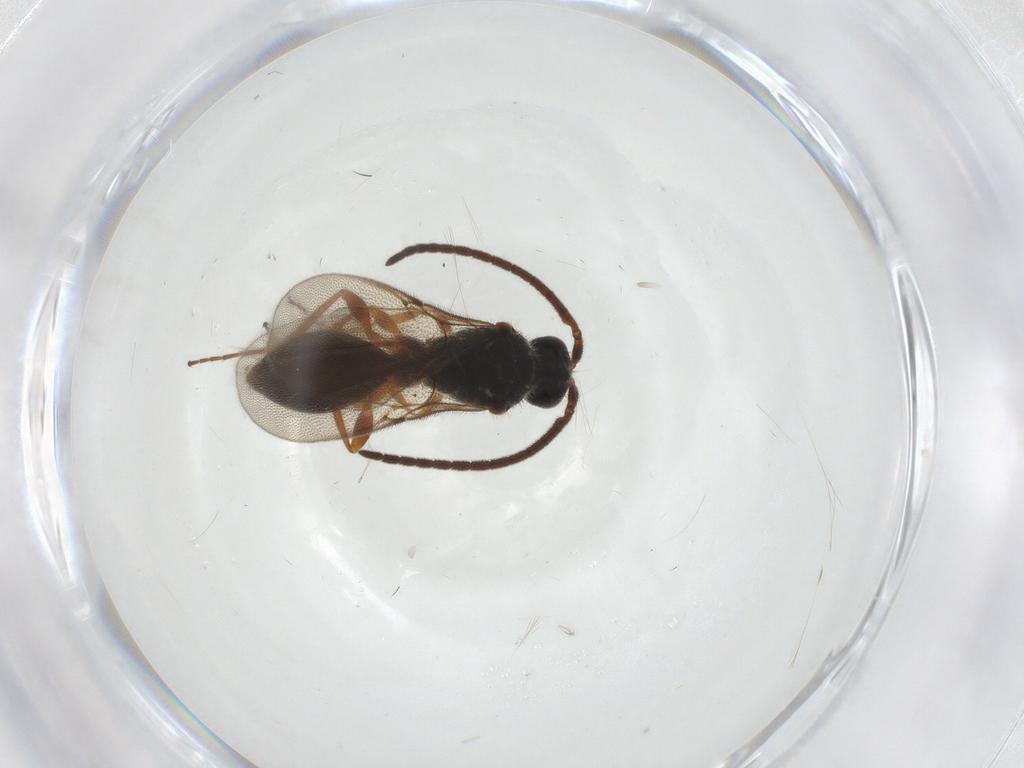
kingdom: Animalia
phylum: Arthropoda
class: Insecta
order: Hymenoptera
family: Diapriidae
